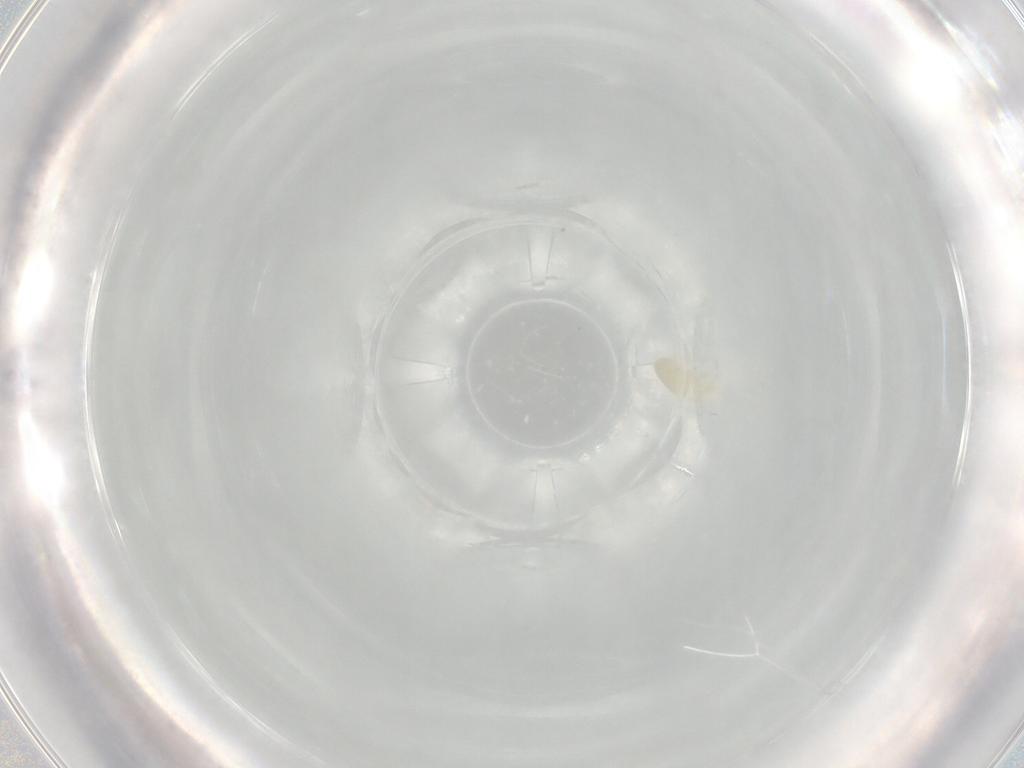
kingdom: Animalia
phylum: Arthropoda
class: Arachnida
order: Trombidiformes
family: Rhagidiidae
